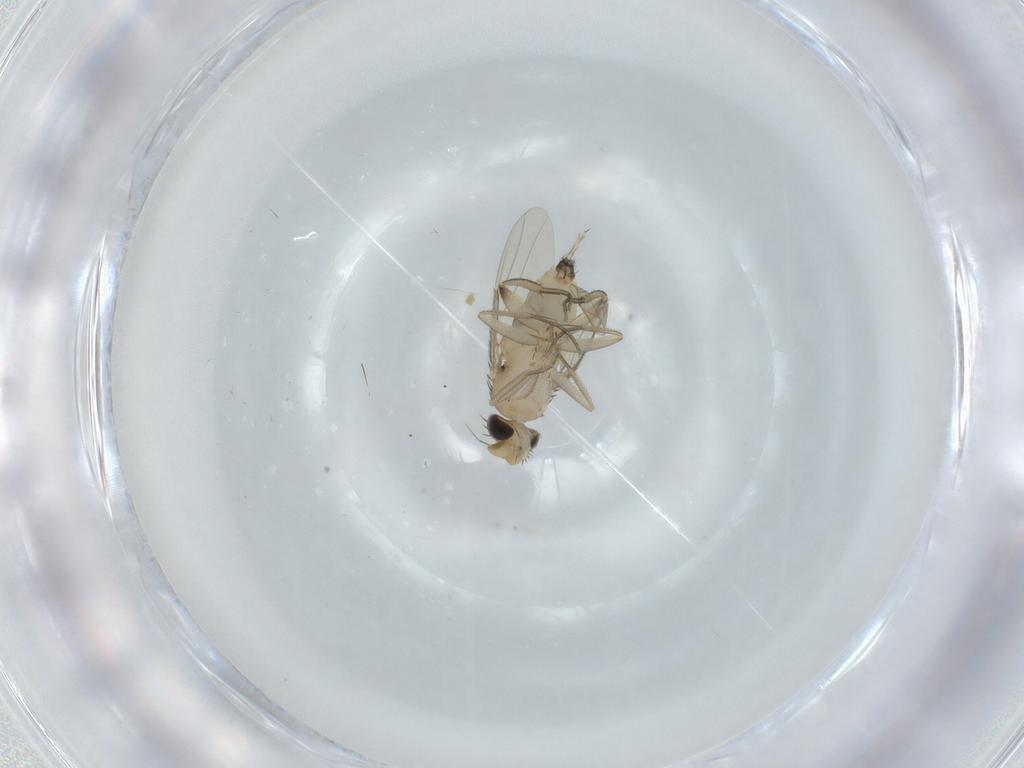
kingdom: Animalia
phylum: Arthropoda
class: Insecta
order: Diptera
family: Phoridae
